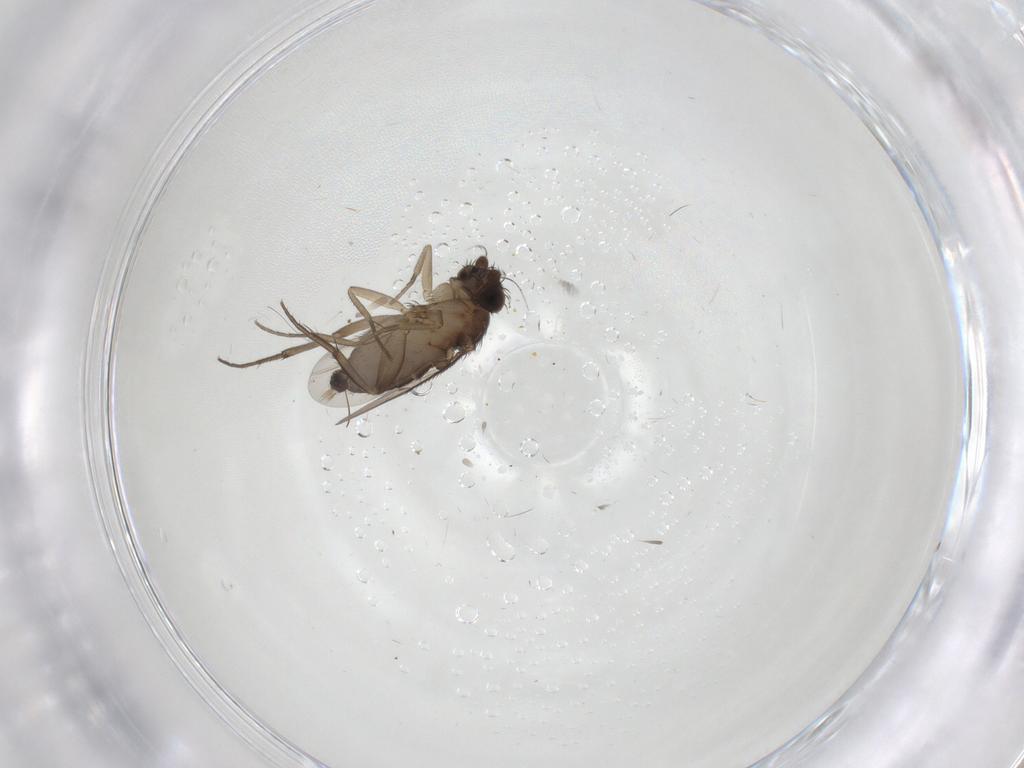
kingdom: Animalia
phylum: Arthropoda
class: Insecta
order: Diptera
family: Phoridae
